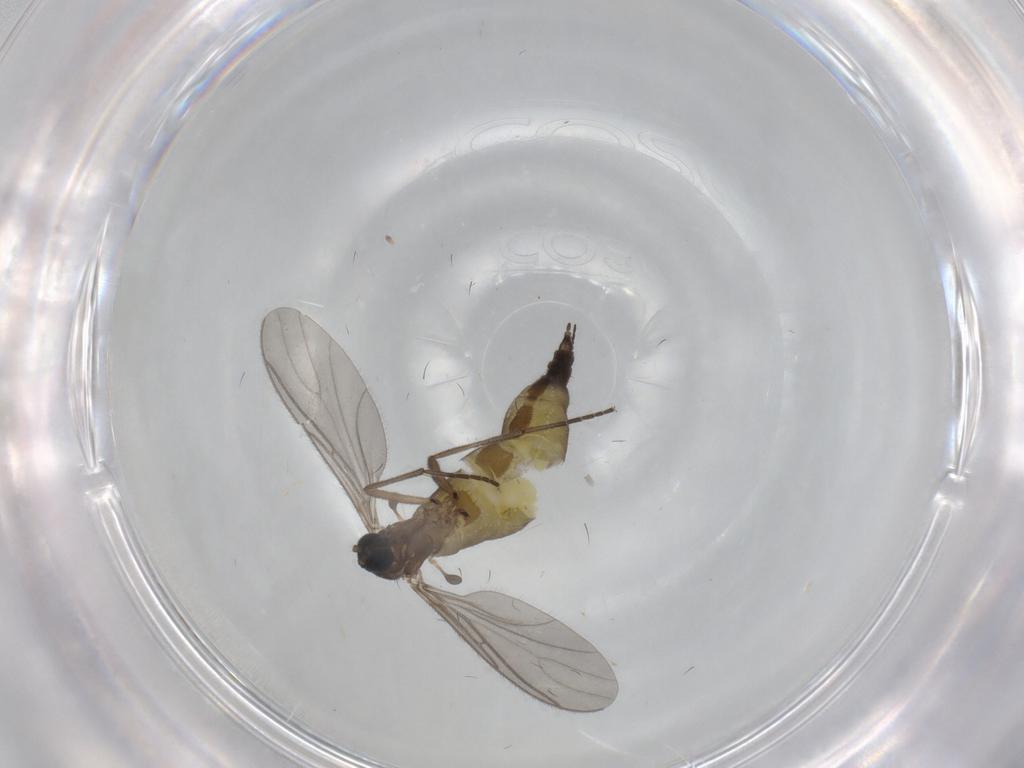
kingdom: Animalia
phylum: Arthropoda
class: Insecta
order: Diptera
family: Sciaridae
